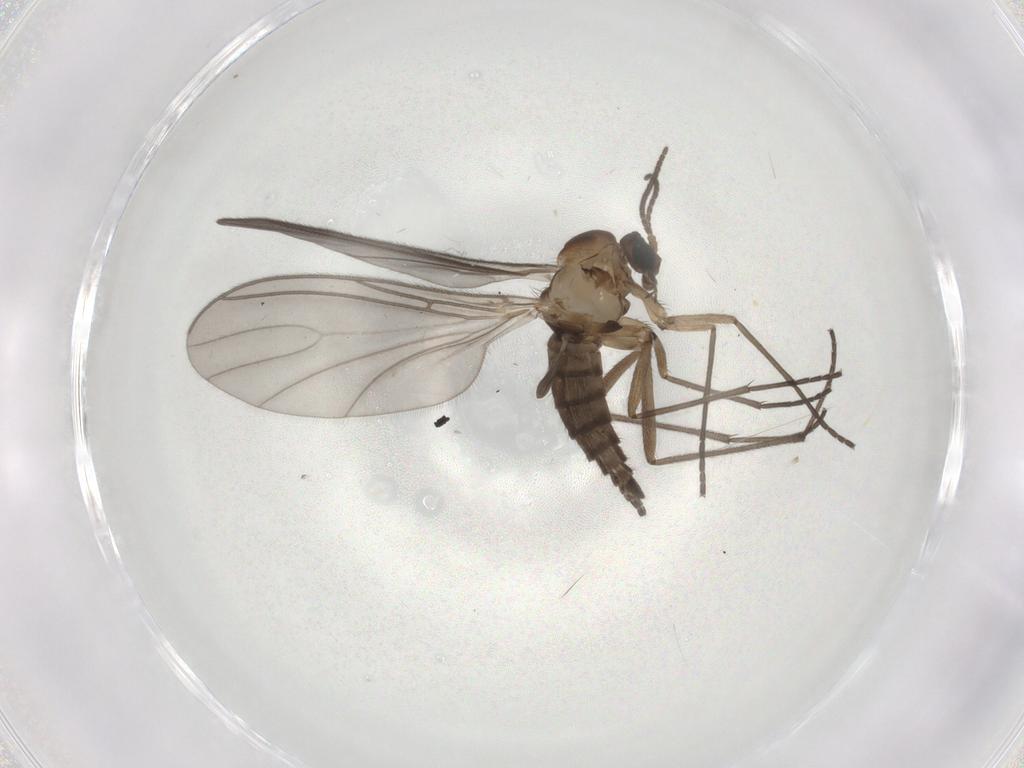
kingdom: Animalia
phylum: Arthropoda
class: Insecta
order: Diptera
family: Sciaridae
